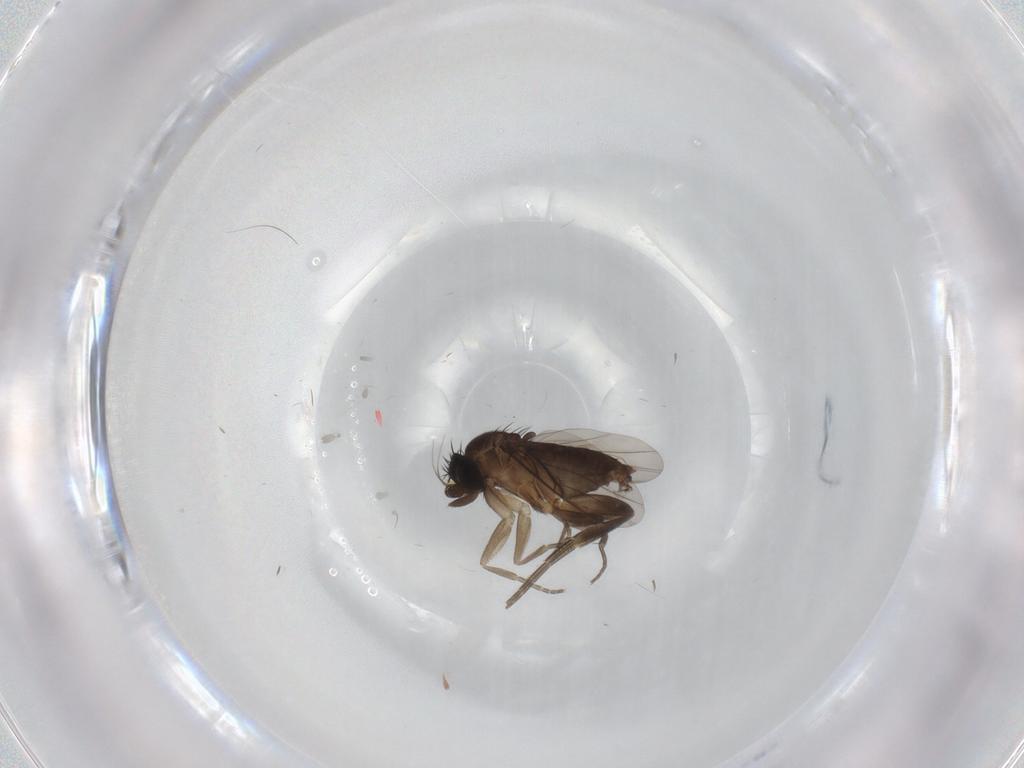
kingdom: Animalia
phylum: Arthropoda
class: Insecta
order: Diptera
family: Phoridae
